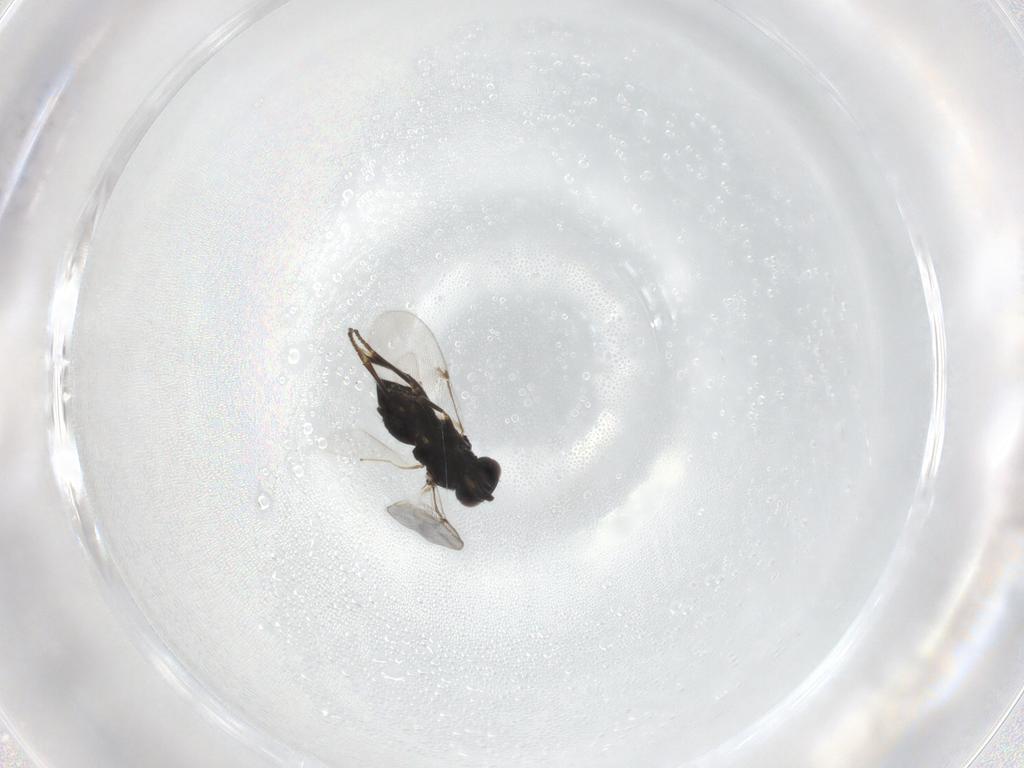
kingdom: Animalia
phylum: Arthropoda
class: Insecta
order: Hymenoptera
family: Encyrtidae
